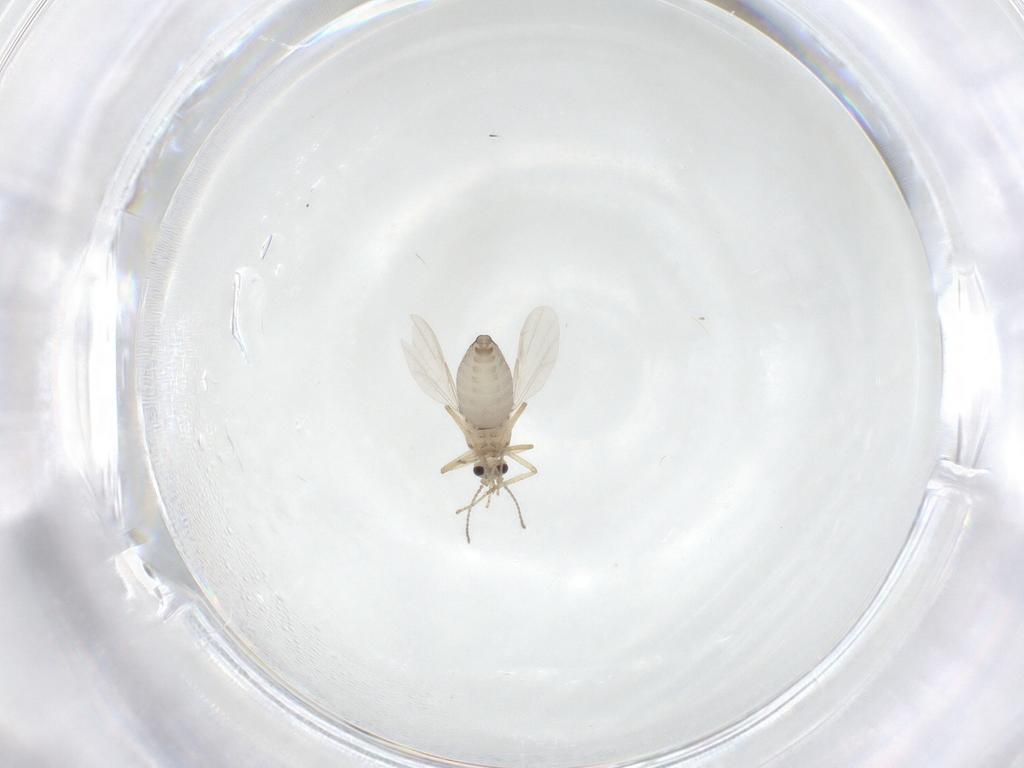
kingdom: Animalia
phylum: Arthropoda
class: Insecta
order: Diptera
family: Ceratopogonidae
